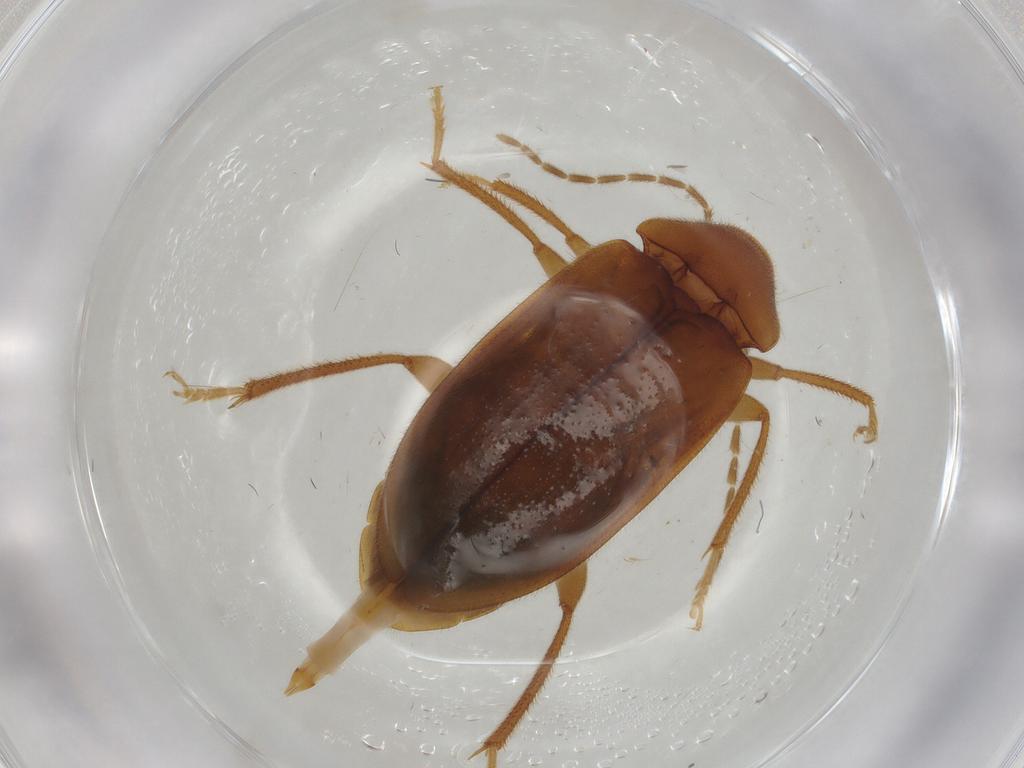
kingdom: Animalia
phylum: Arthropoda
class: Insecta
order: Coleoptera
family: Ptilodactylidae
